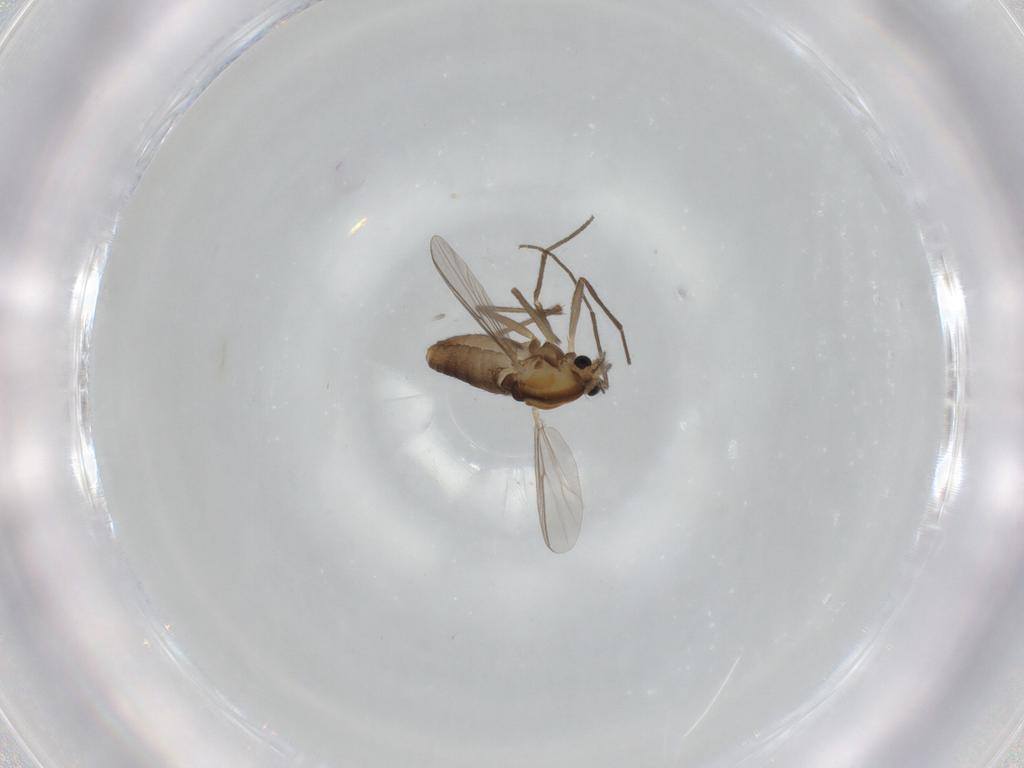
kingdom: Animalia
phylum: Arthropoda
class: Insecta
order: Diptera
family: Chironomidae
